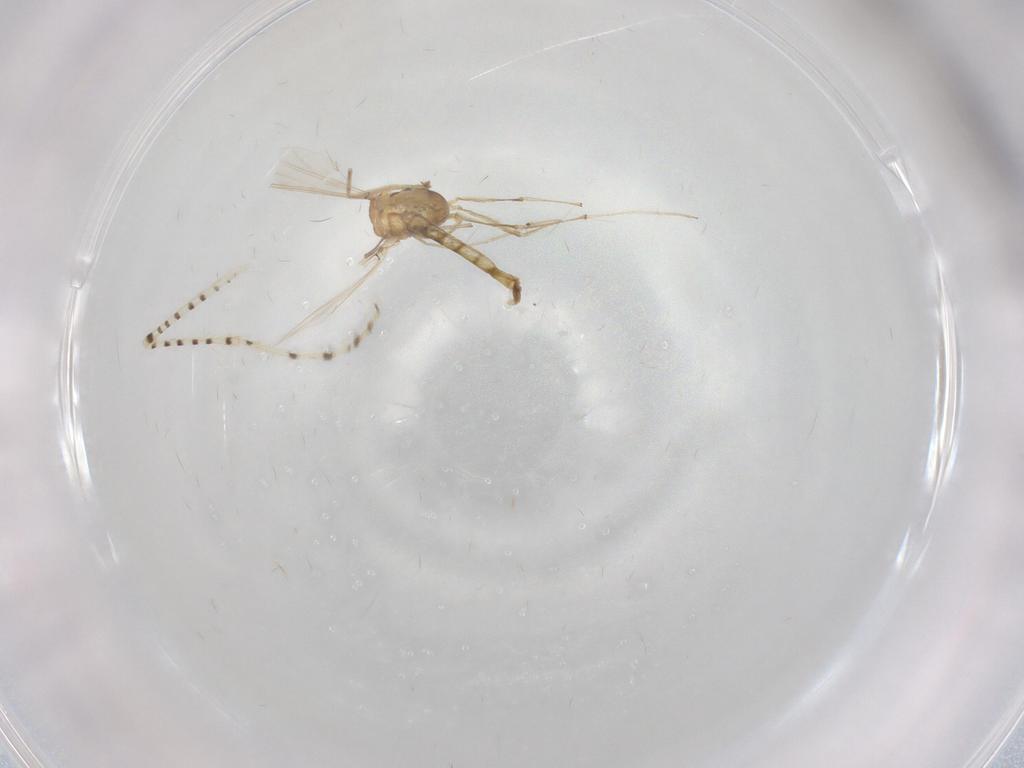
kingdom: Animalia
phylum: Arthropoda
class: Insecta
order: Diptera
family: Chaoboridae
